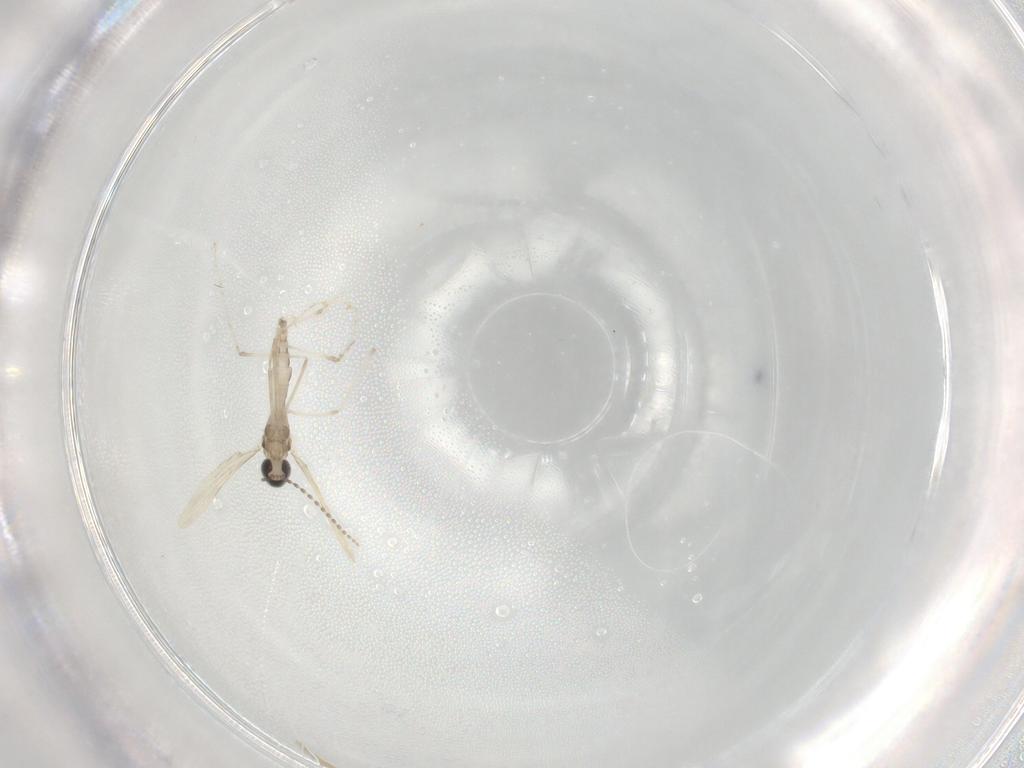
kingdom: Animalia
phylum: Arthropoda
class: Insecta
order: Diptera
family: Cecidomyiidae
